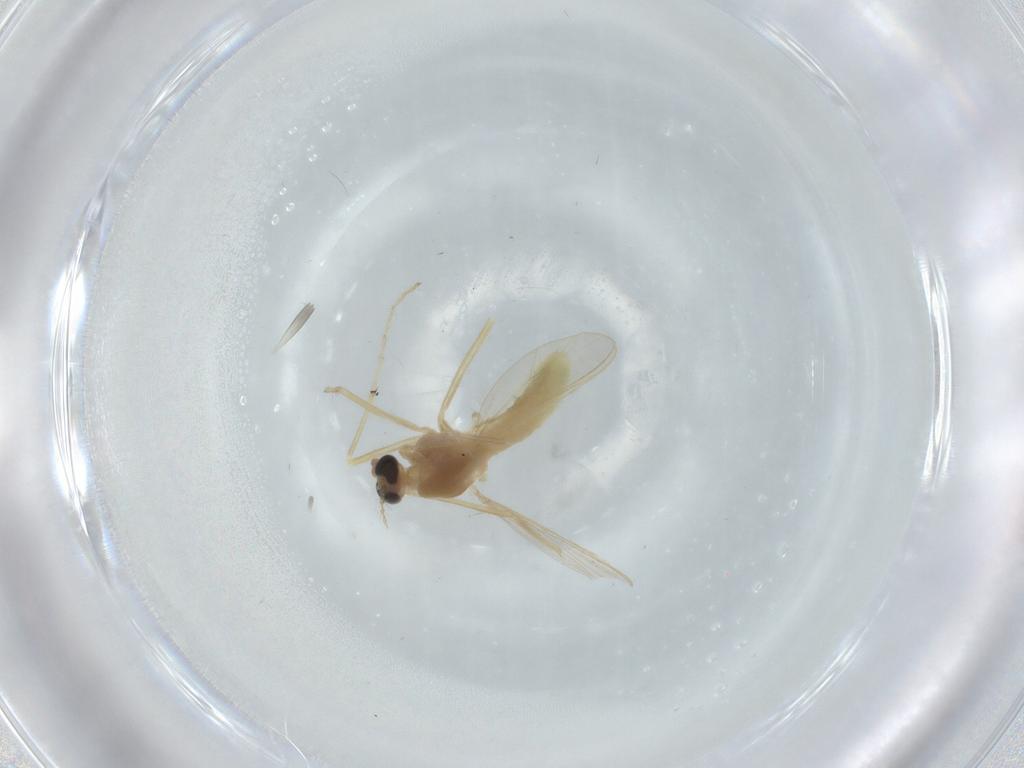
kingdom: Animalia
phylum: Arthropoda
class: Insecta
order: Diptera
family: Chironomidae
